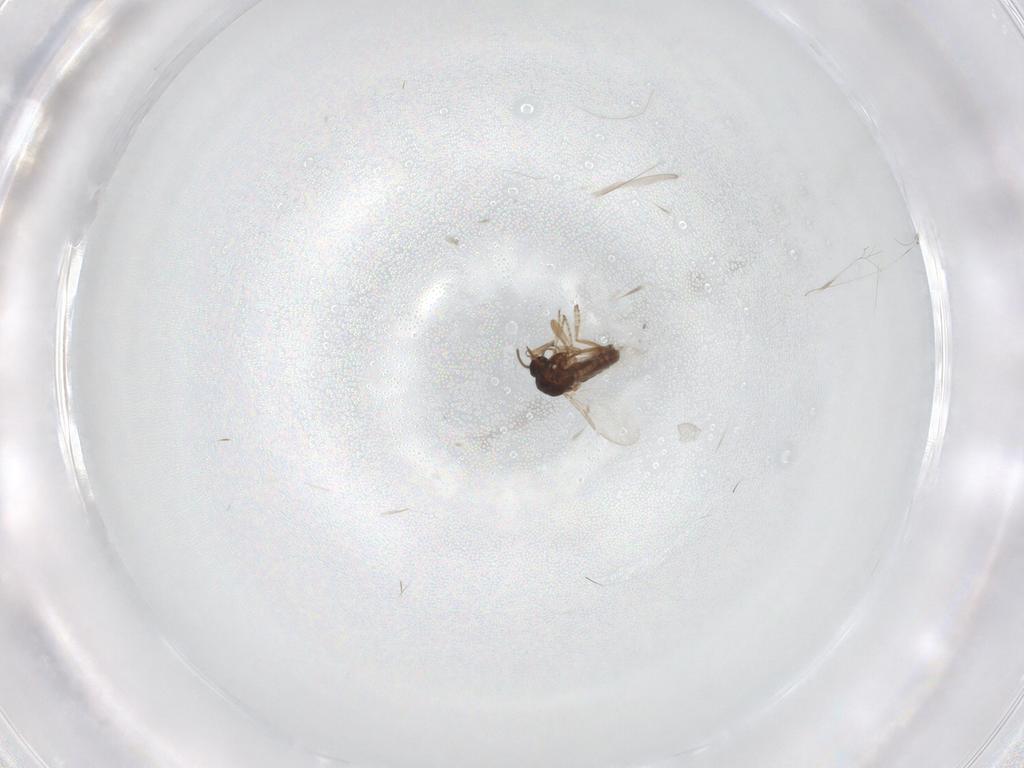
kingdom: Animalia
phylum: Arthropoda
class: Insecta
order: Diptera
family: Ceratopogonidae
